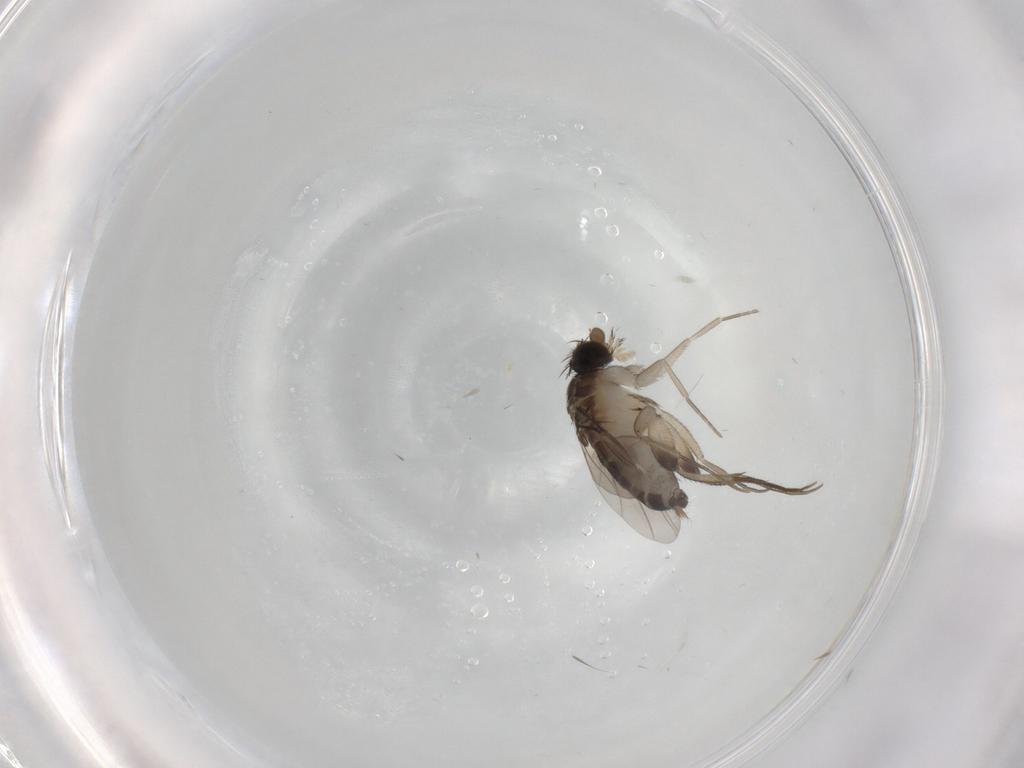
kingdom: Animalia
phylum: Arthropoda
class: Insecta
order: Diptera
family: Phoridae
